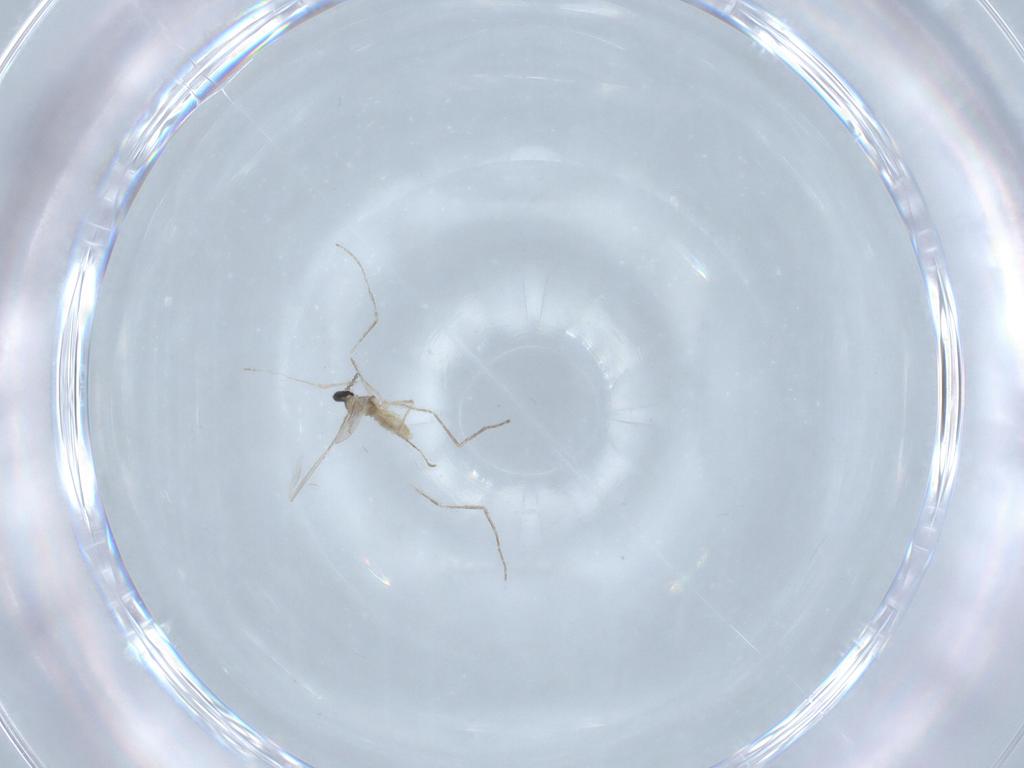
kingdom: Animalia
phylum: Arthropoda
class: Insecta
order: Diptera
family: Cecidomyiidae
